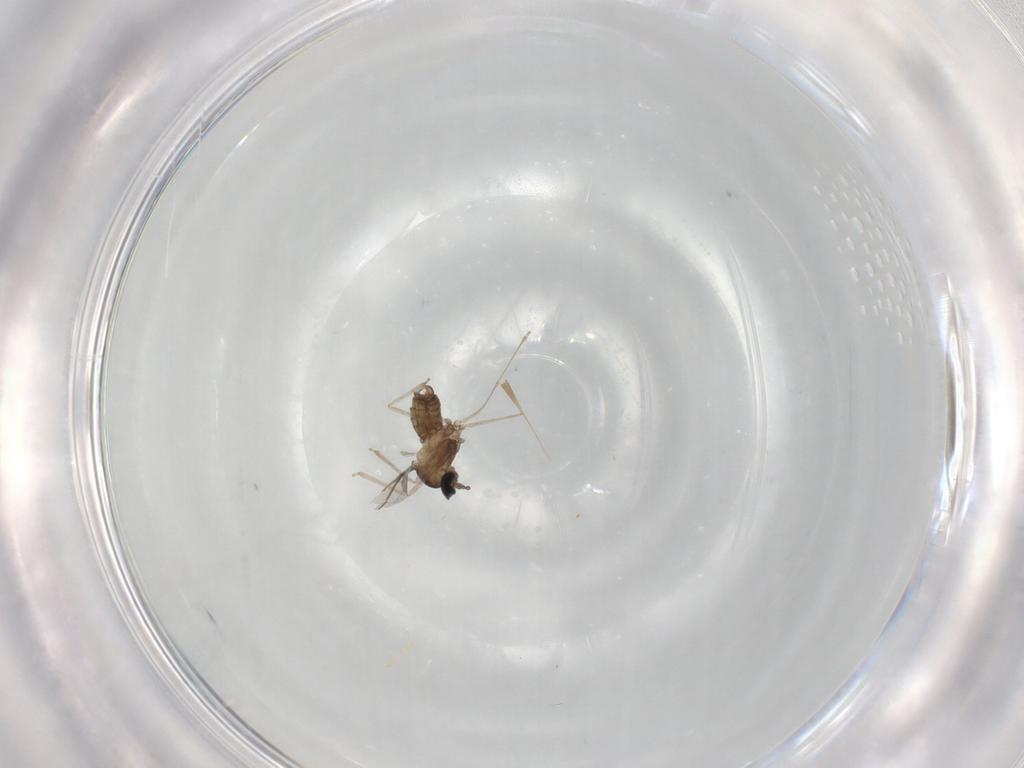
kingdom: Animalia
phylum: Arthropoda
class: Insecta
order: Diptera
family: Cecidomyiidae
